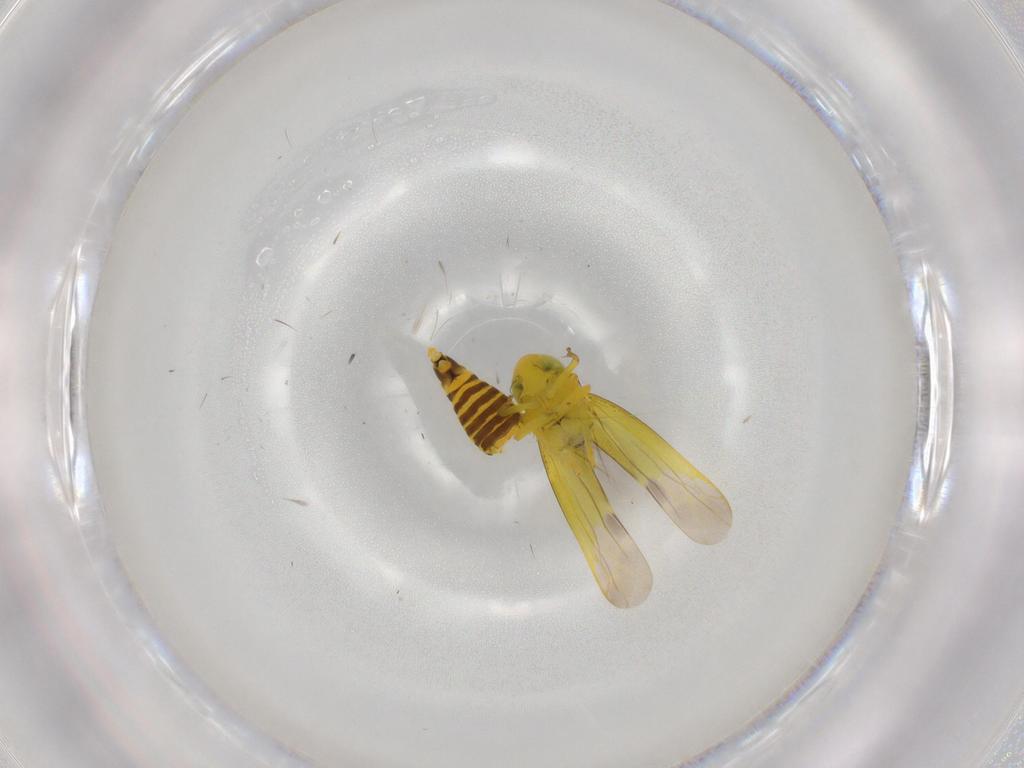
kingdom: Animalia
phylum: Arthropoda
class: Insecta
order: Hemiptera
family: Cicadellidae
